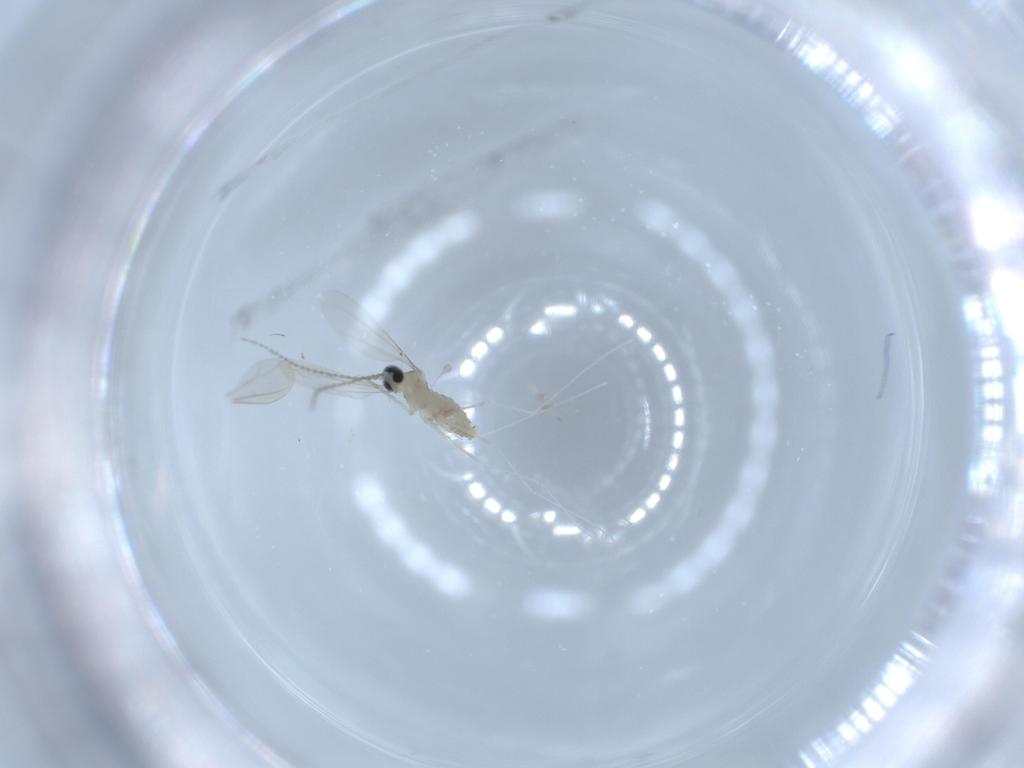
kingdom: Animalia
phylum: Arthropoda
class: Insecta
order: Diptera
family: Cecidomyiidae
